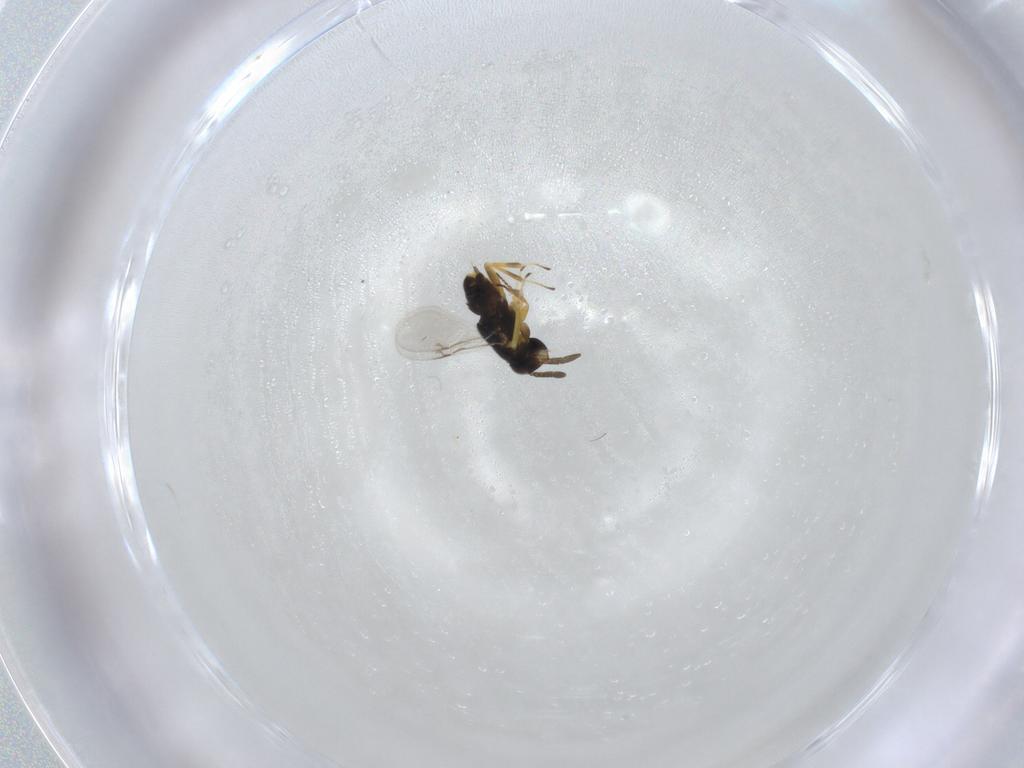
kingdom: Animalia
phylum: Arthropoda
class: Insecta
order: Hymenoptera
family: Encyrtidae
